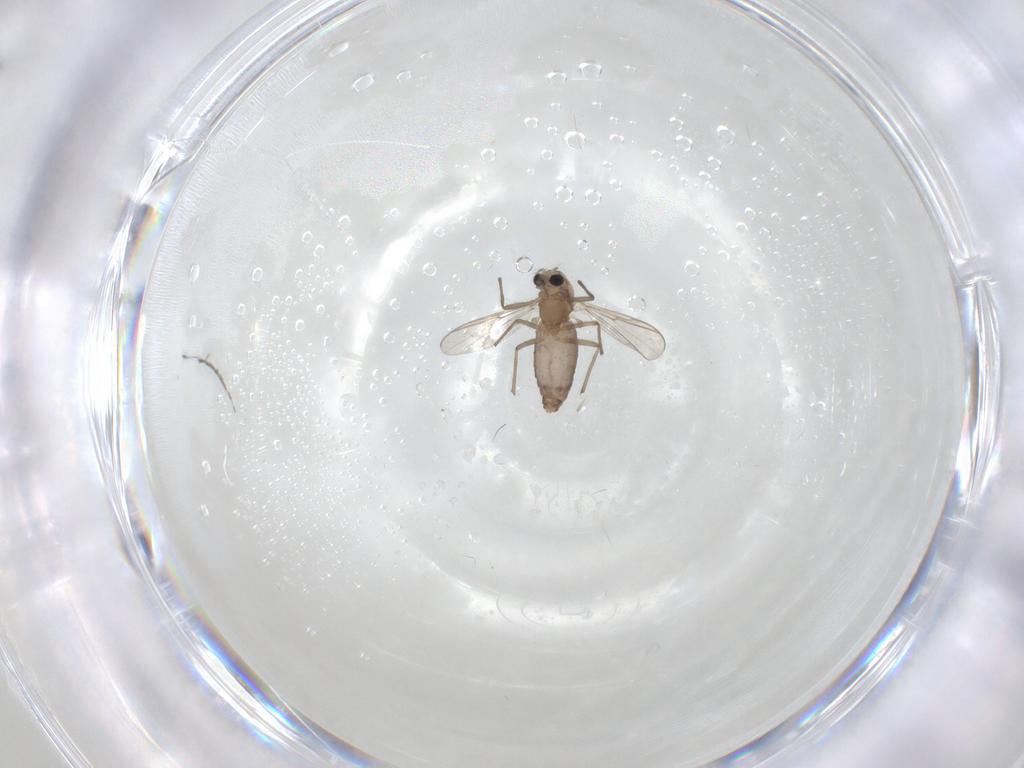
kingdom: Animalia
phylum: Arthropoda
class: Insecta
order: Diptera
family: Chironomidae
